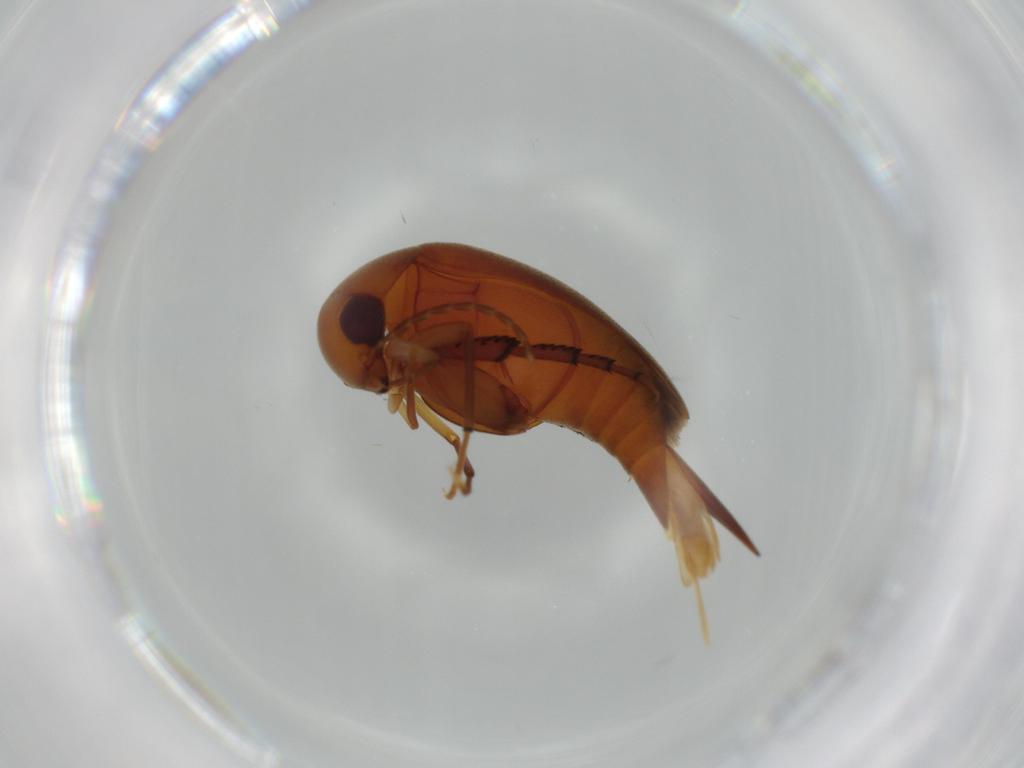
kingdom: Animalia
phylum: Arthropoda
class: Insecta
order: Coleoptera
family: Mordellidae
